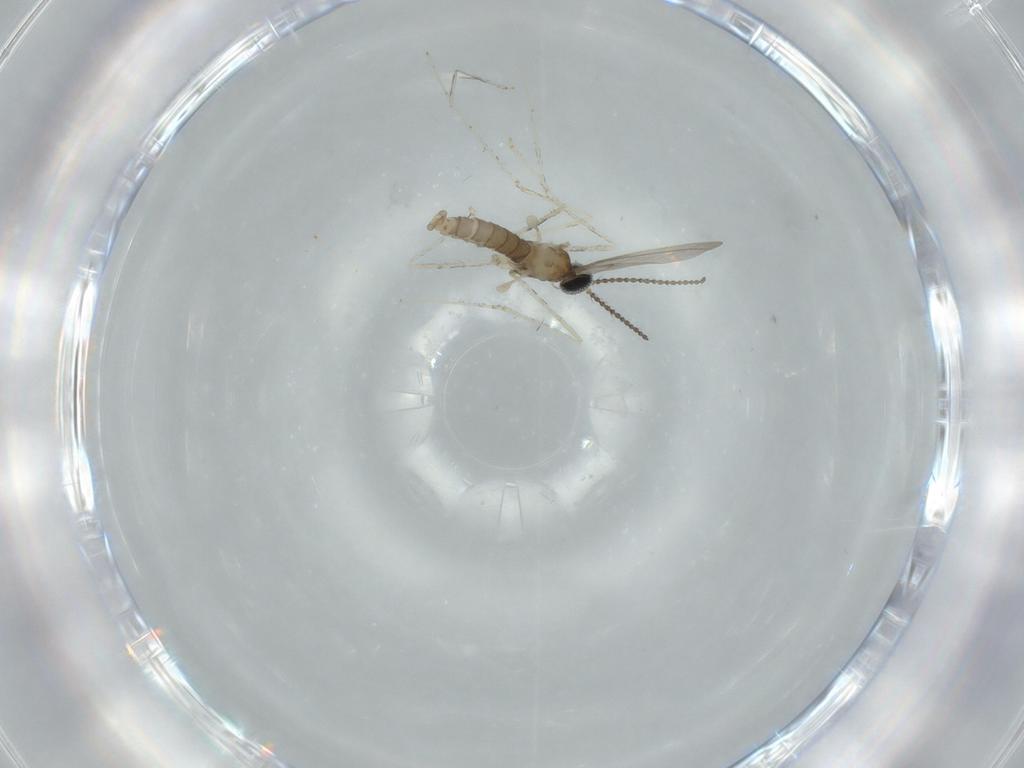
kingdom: Animalia
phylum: Arthropoda
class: Insecta
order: Diptera
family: Cecidomyiidae
